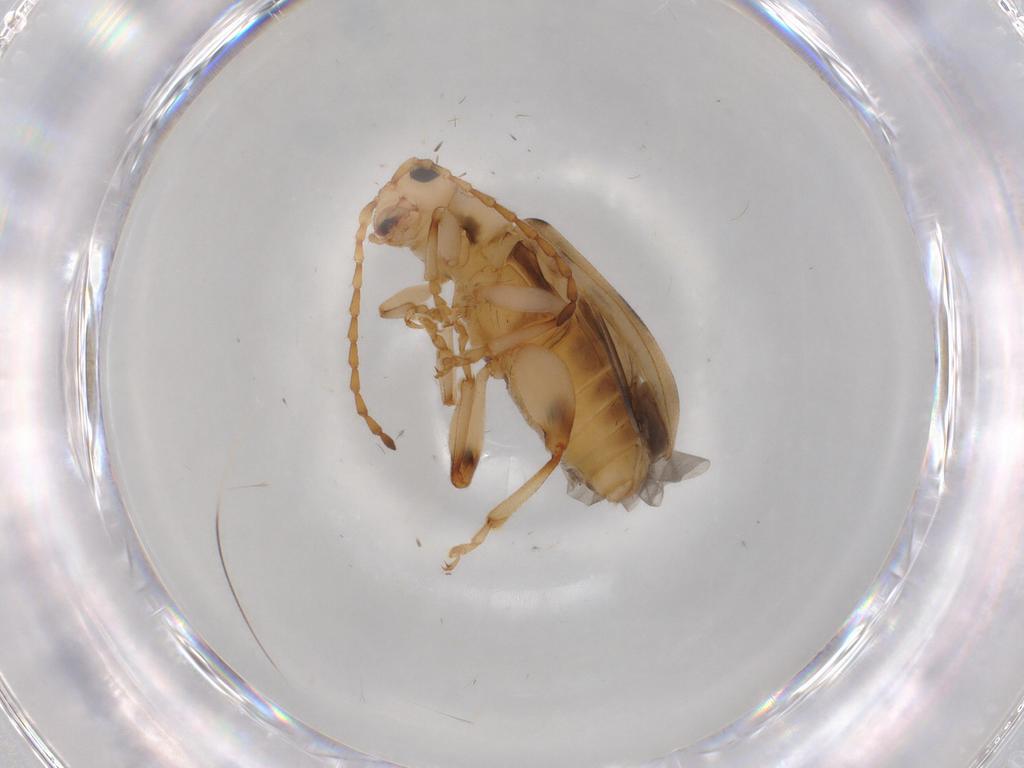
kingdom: Animalia
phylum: Arthropoda
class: Insecta
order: Coleoptera
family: Chrysomelidae
